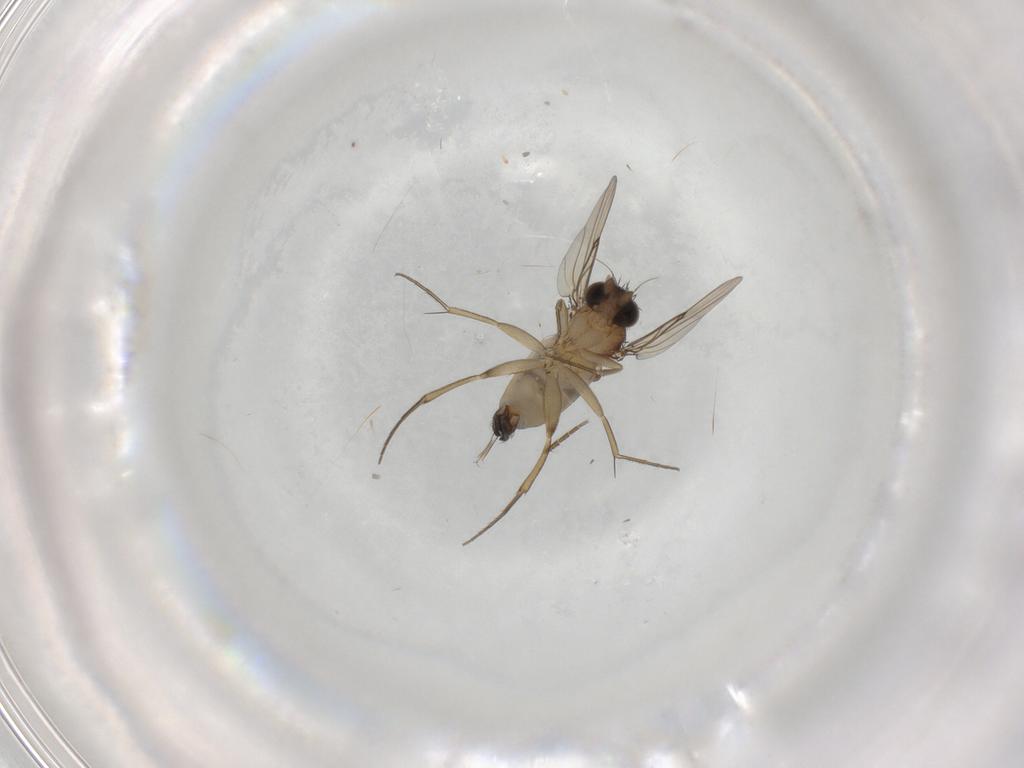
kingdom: Animalia
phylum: Arthropoda
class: Insecta
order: Diptera
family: Phoridae
